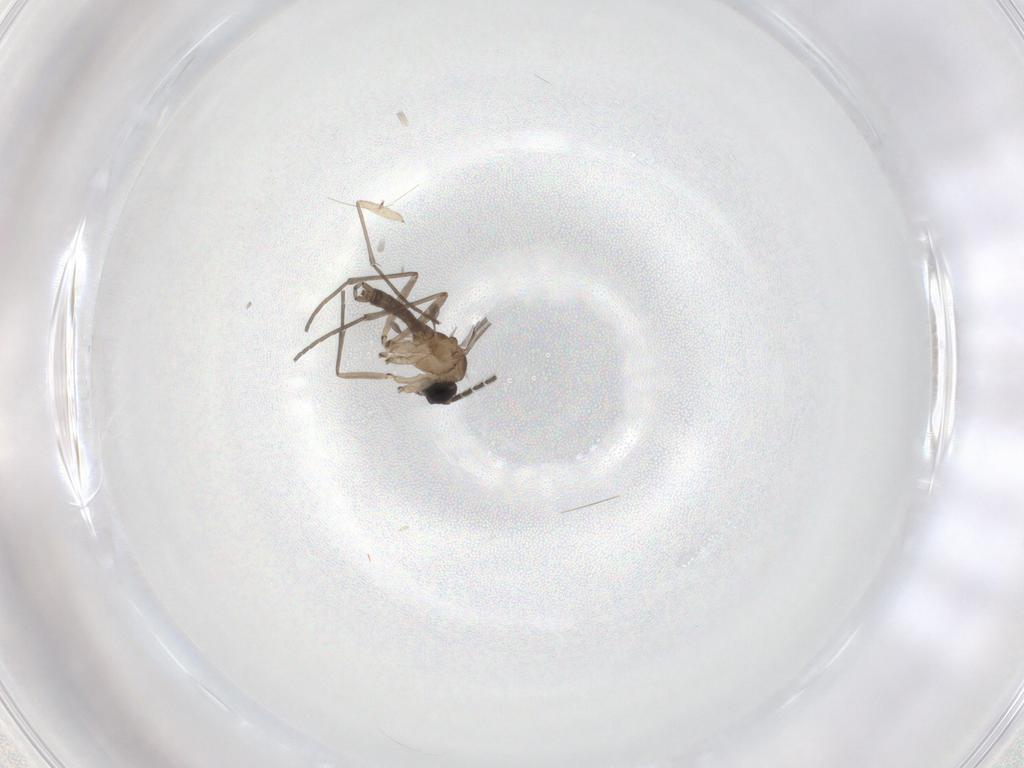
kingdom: Animalia
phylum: Arthropoda
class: Insecta
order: Diptera
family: Sciaridae
